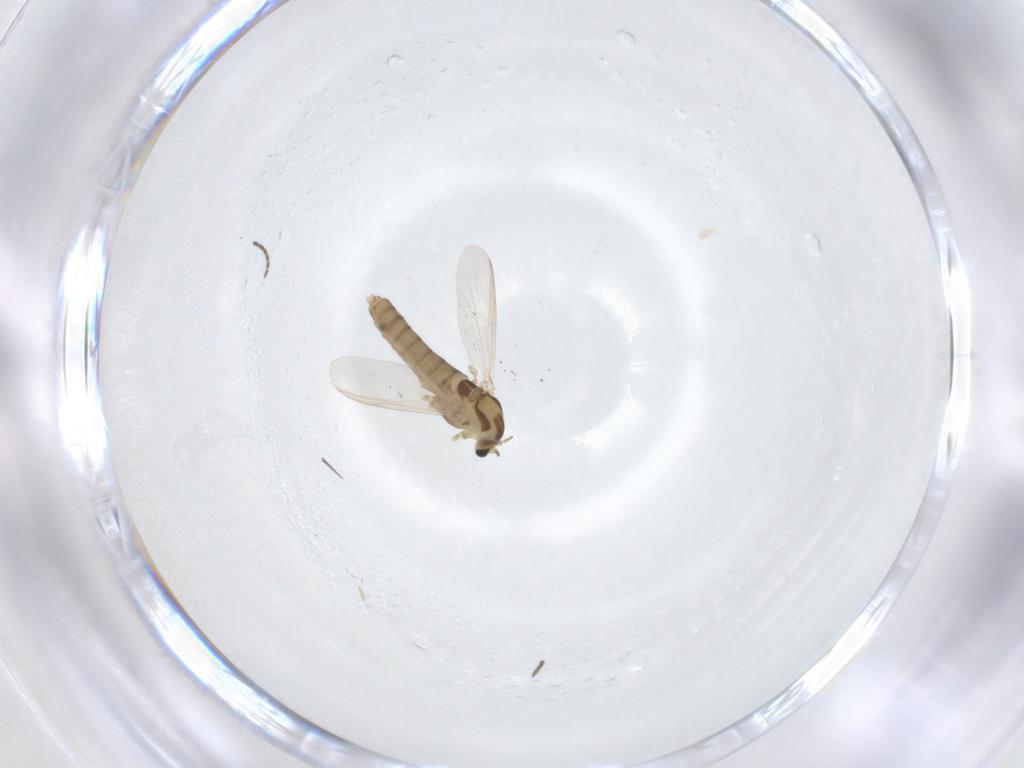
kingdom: Animalia
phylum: Arthropoda
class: Insecta
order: Diptera
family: Chironomidae
